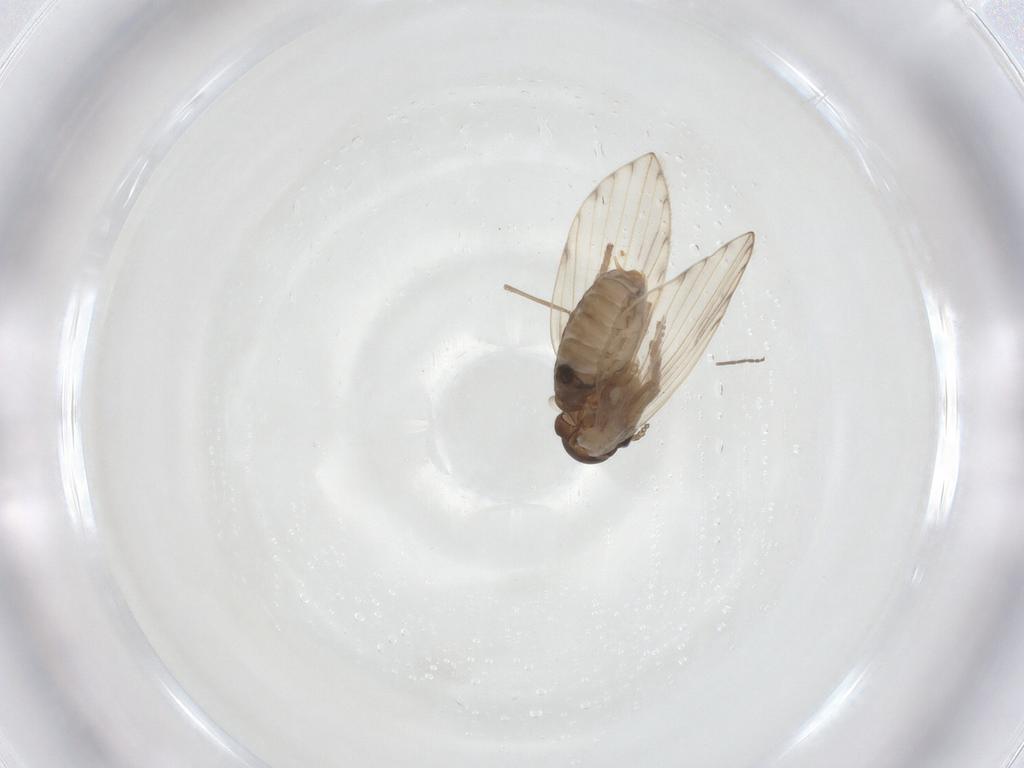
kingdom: Animalia
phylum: Arthropoda
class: Insecta
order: Diptera
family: Psychodidae
